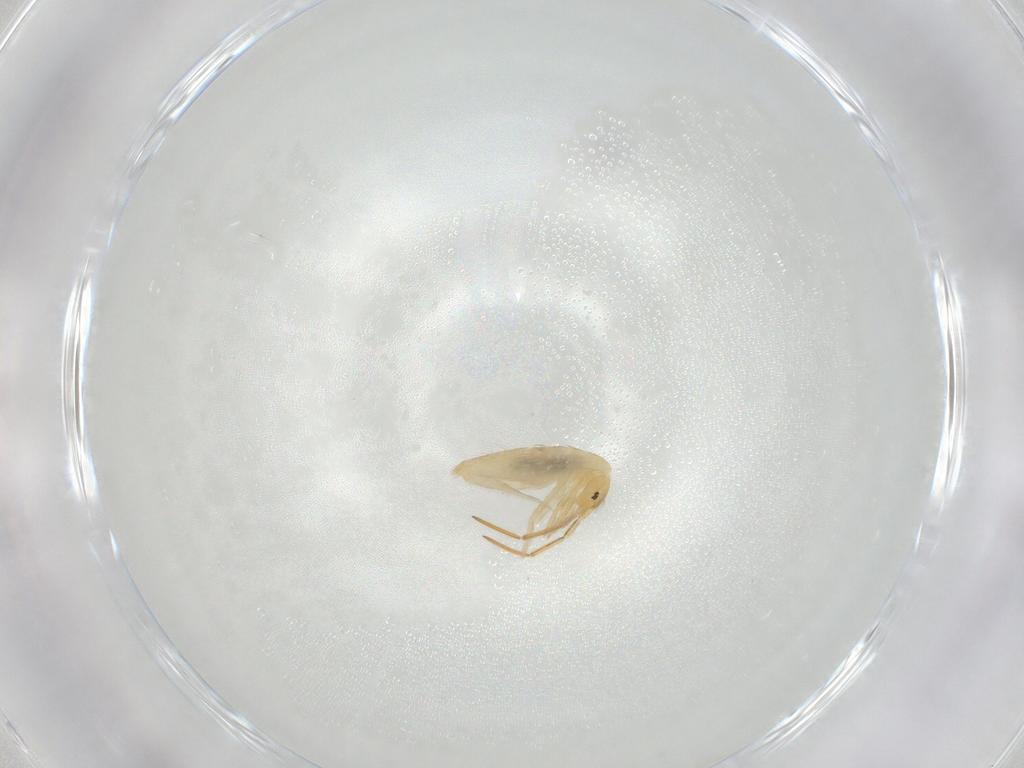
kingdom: Animalia
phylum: Arthropoda
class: Collembola
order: Entomobryomorpha
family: Entomobryidae
